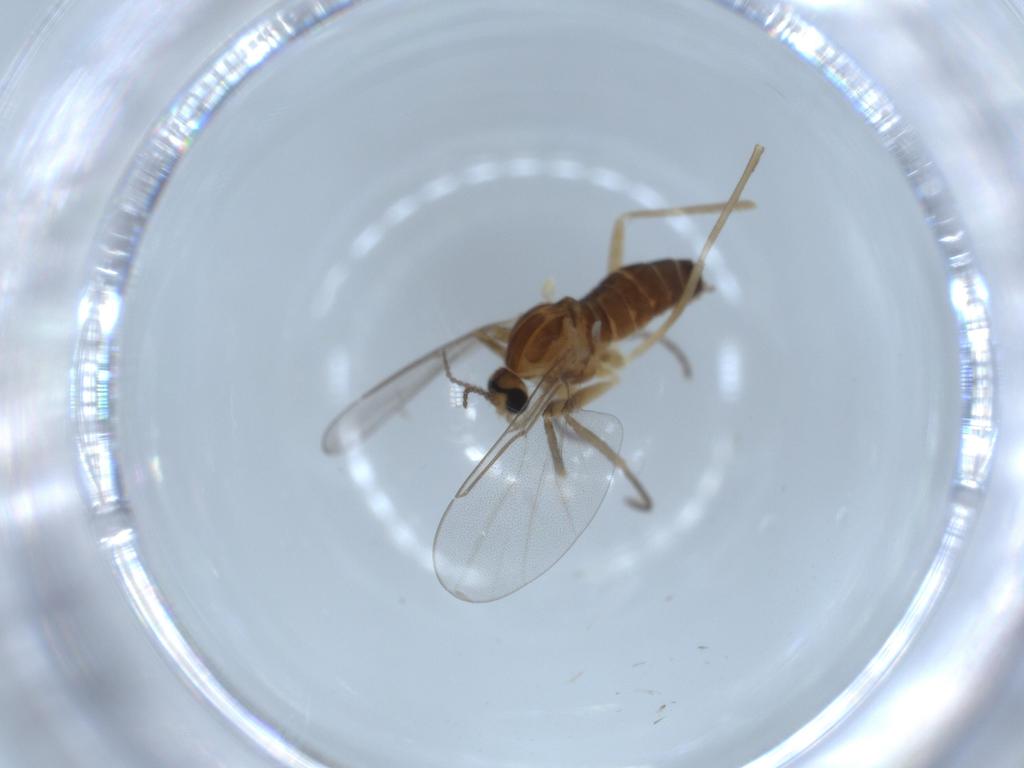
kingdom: Animalia
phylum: Arthropoda
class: Insecta
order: Diptera
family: Cecidomyiidae
